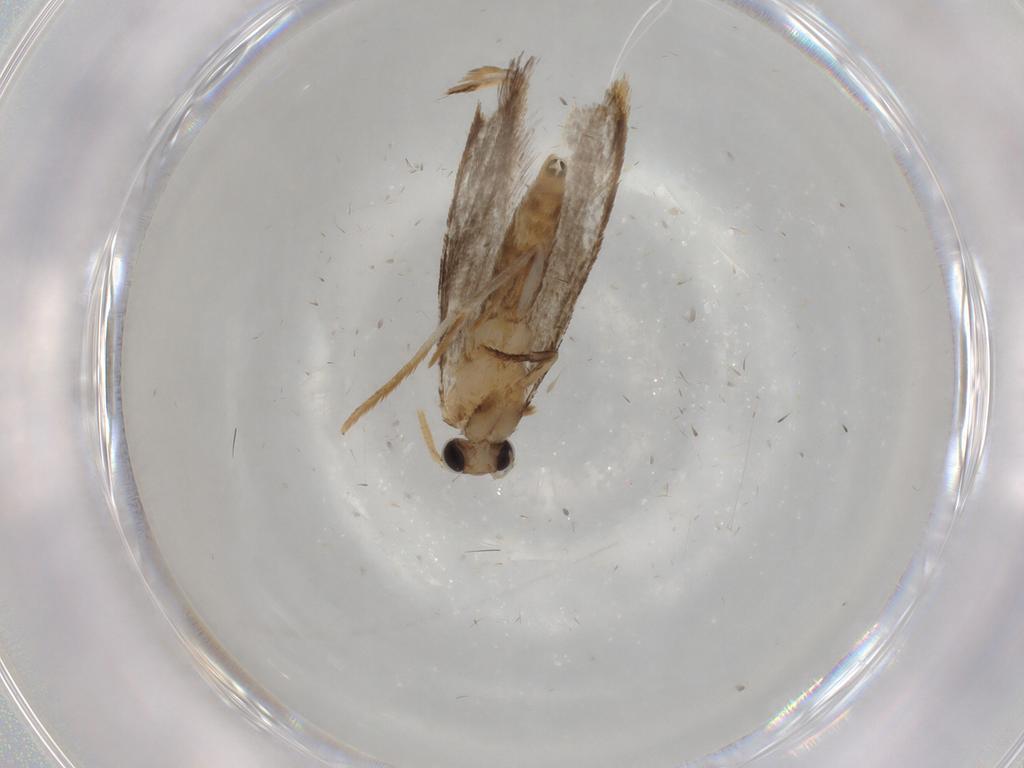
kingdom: Animalia
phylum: Arthropoda
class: Insecta
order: Lepidoptera
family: Tineidae
